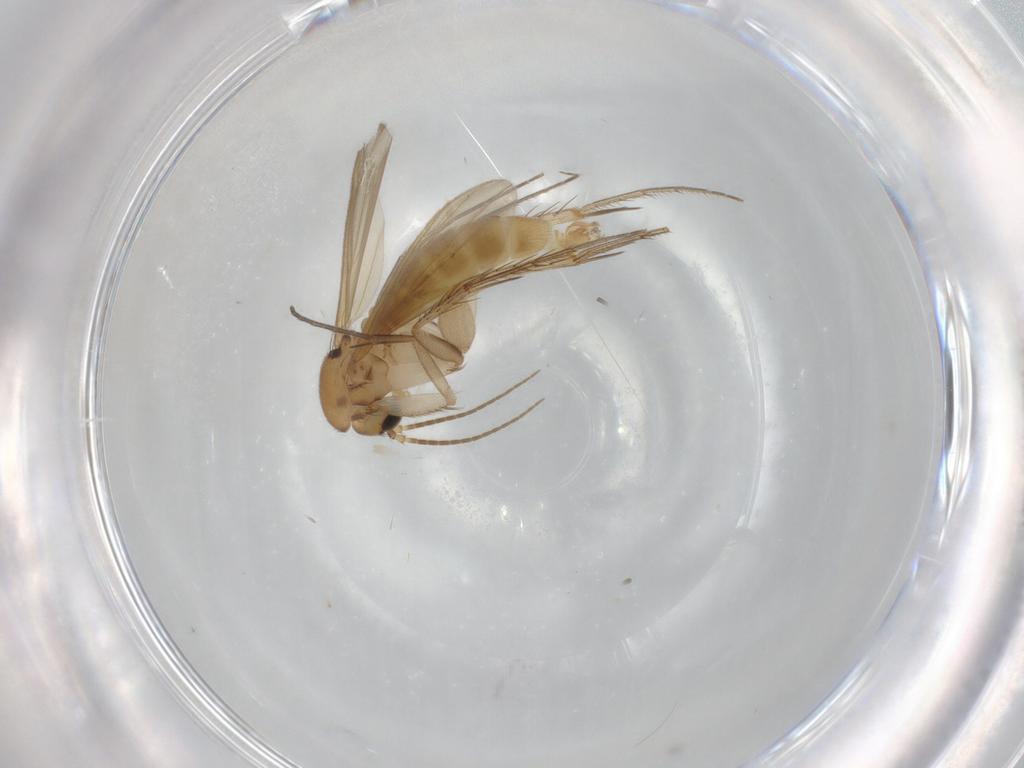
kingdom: Animalia
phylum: Arthropoda
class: Insecta
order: Diptera
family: Mycetophilidae
